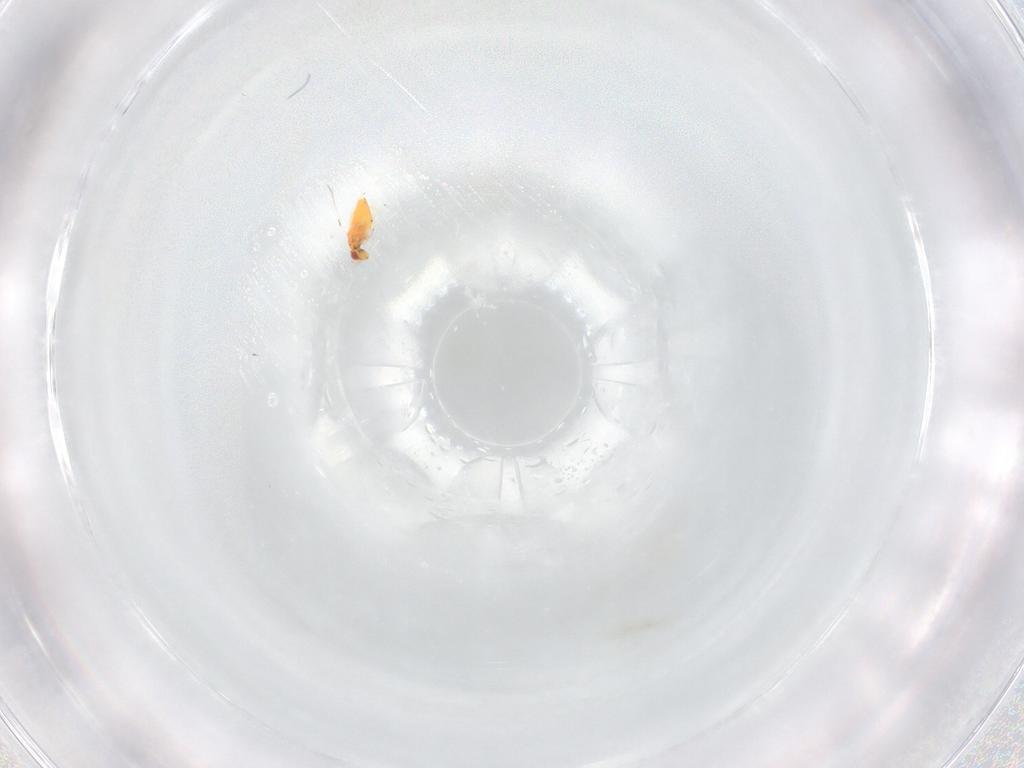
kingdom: Animalia
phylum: Arthropoda
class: Insecta
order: Hymenoptera
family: Trichogrammatidae
